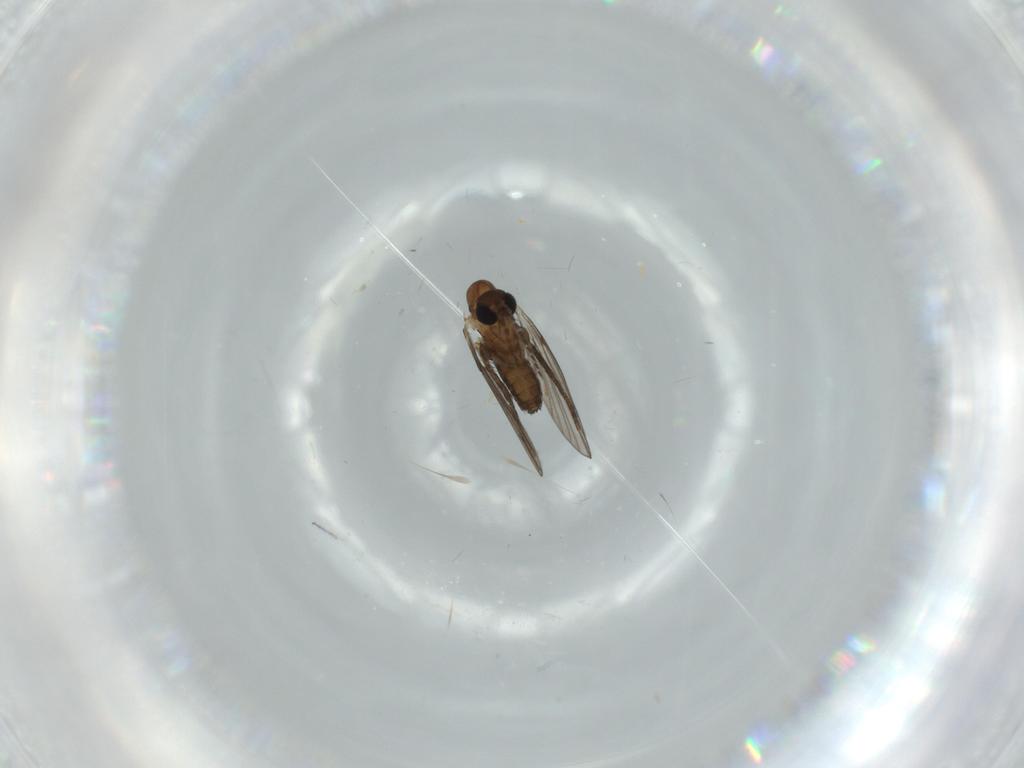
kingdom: Animalia
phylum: Arthropoda
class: Insecta
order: Diptera
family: Psychodidae
